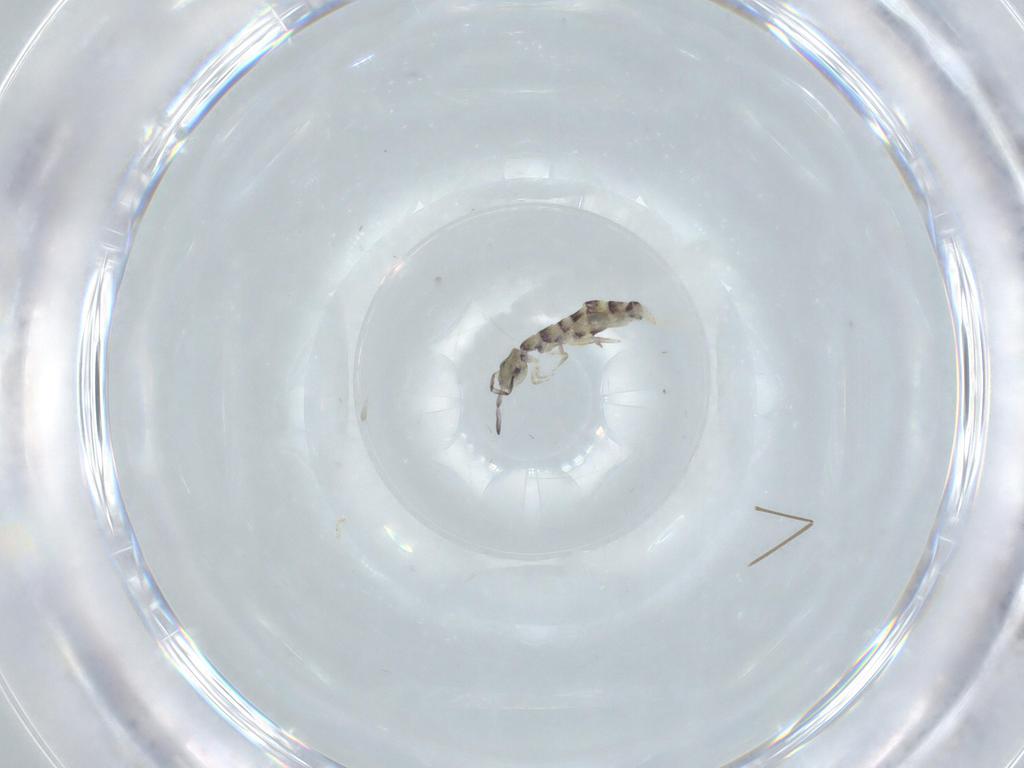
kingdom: Animalia
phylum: Arthropoda
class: Collembola
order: Entomobryomorpha
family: Isotomidae
